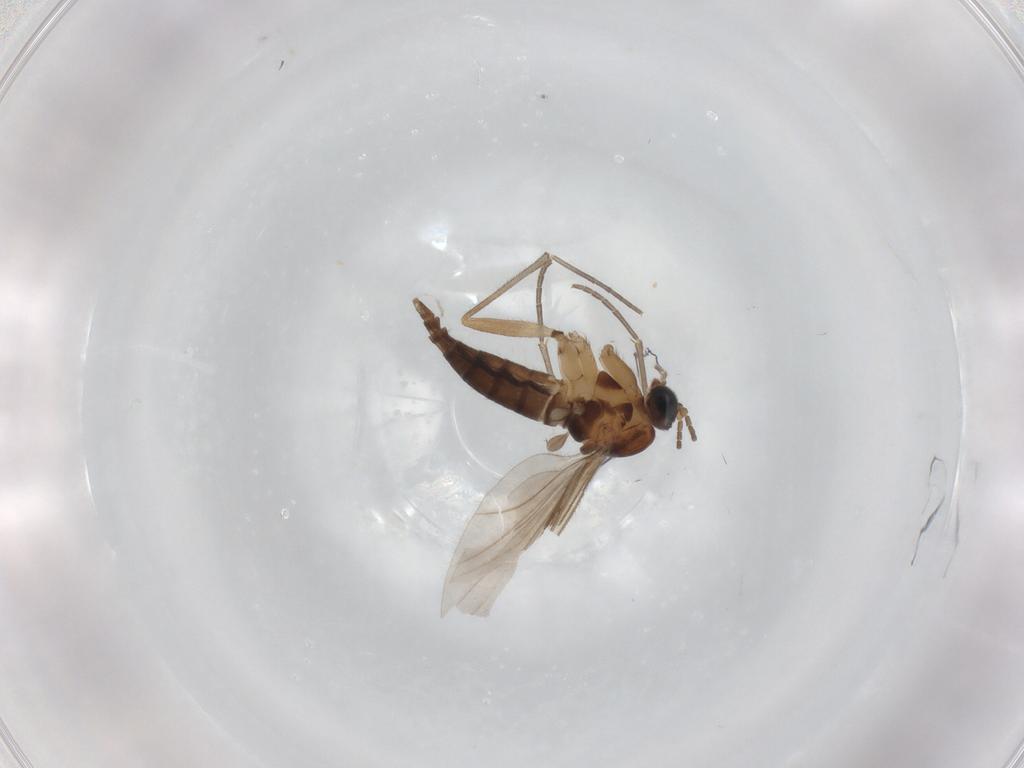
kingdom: Animalia
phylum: Arthropoda
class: Insecta
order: Diptera
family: Cecidomyiidae
